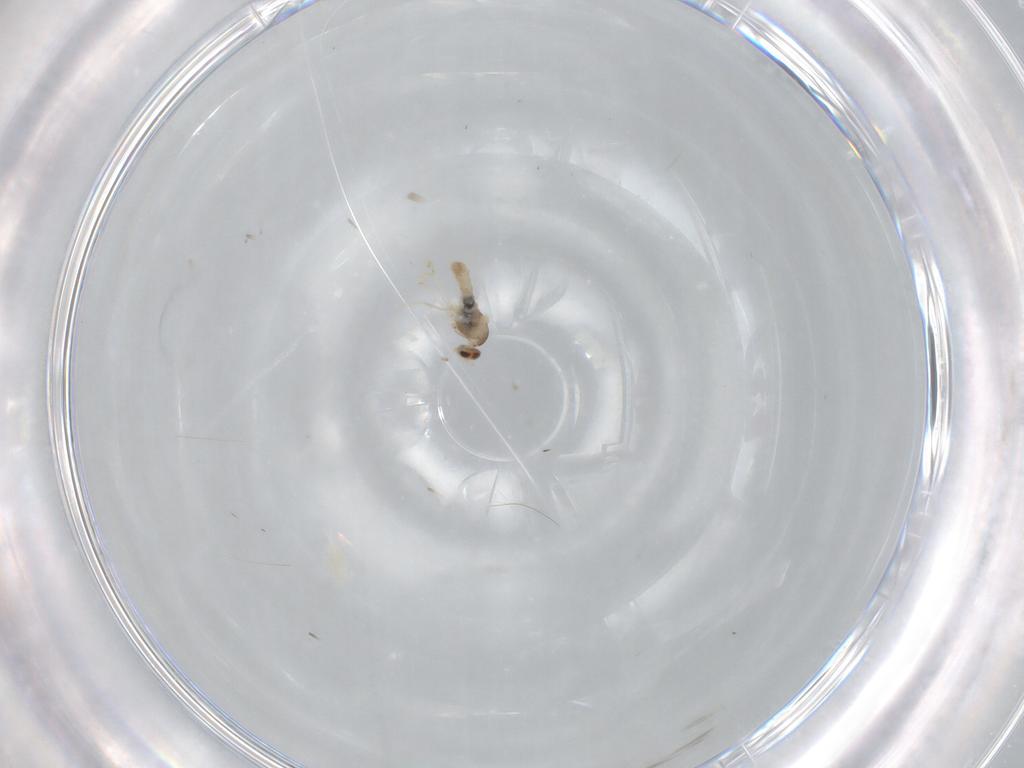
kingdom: Animalia
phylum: Arthropoda
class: Insecta
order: Diptera
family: Cecidomyiidae
